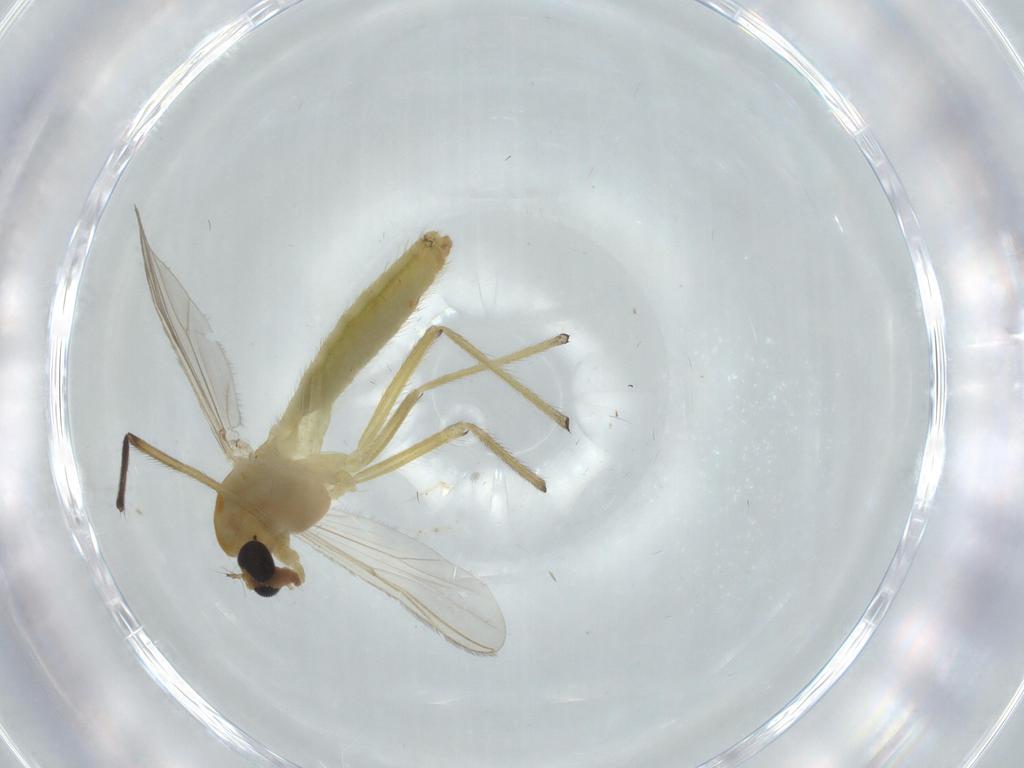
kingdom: Animalia
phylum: Arthropoda
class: Insecta
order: Diptera
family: Chironomidae
